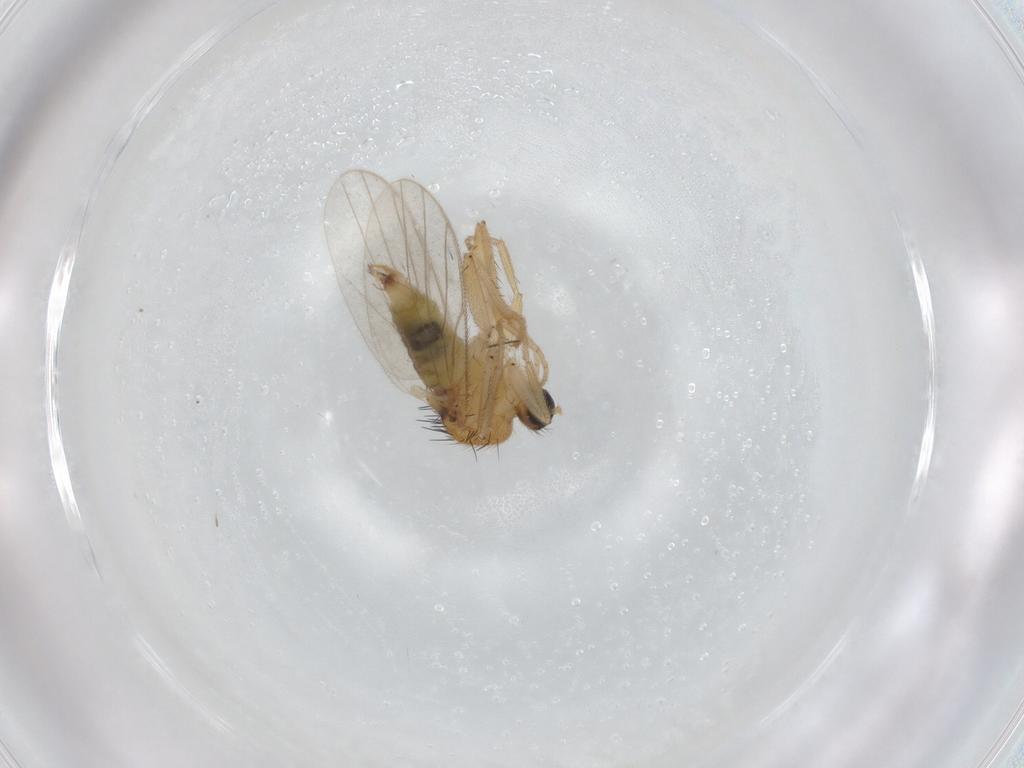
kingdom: Animalia
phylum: Arthropoda
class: Insecta
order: Diptera
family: Hybotidae
